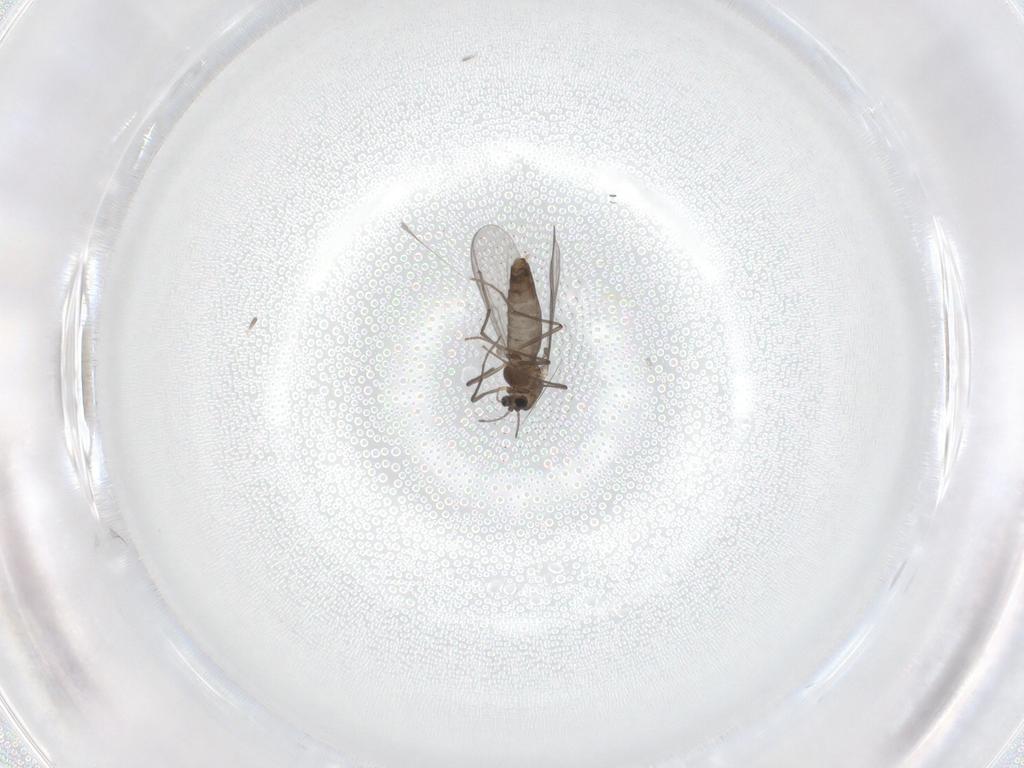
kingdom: Animalia
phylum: Arthropoda
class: Insecta
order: Diptera
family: Chironomidae
